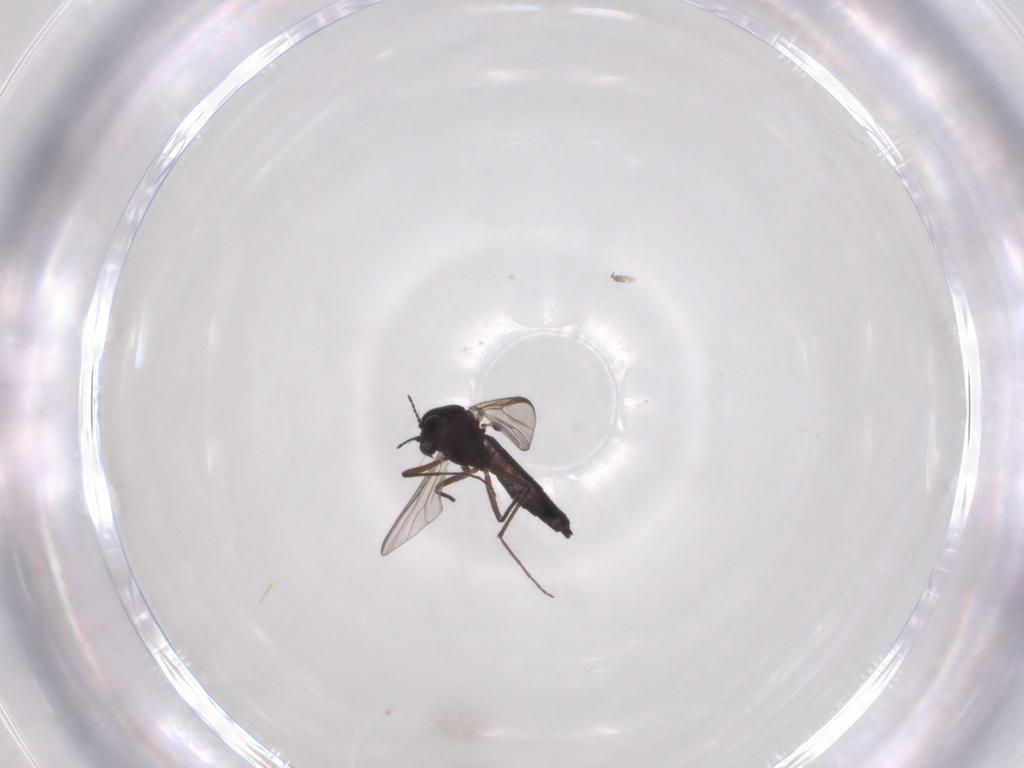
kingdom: Animalia
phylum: Arthropoda
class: Insecta
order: Diptera
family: Chironomidae
